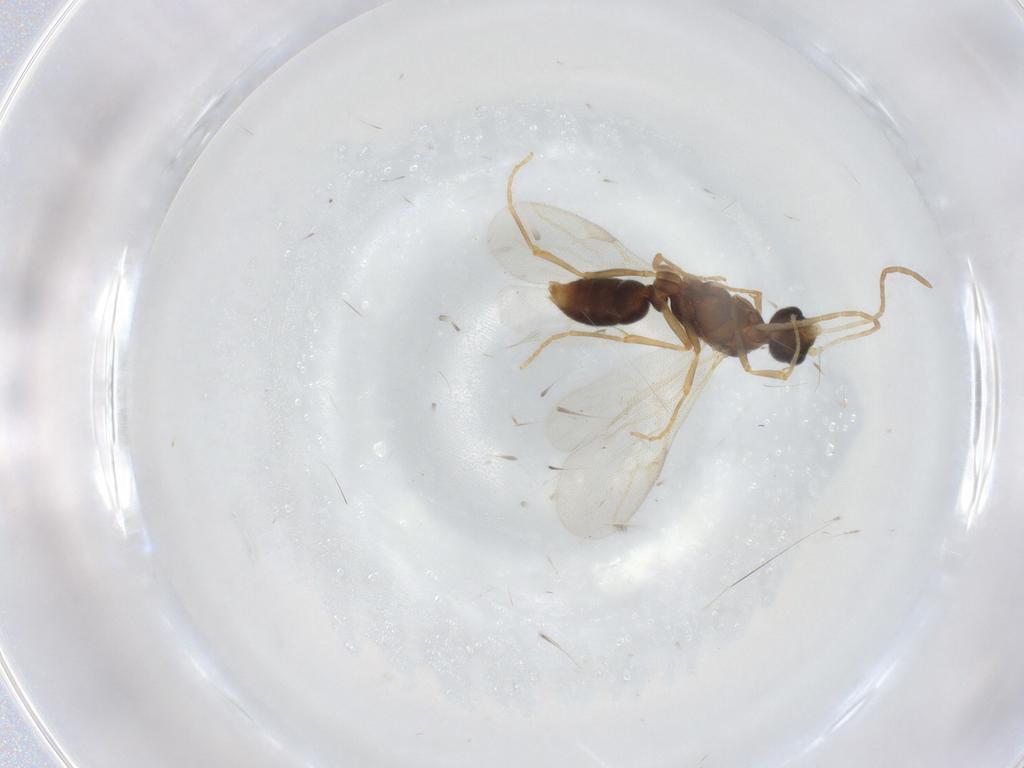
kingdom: Animalia
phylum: Arthropoda
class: Insecta
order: Hymenoptera
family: Formicidae
